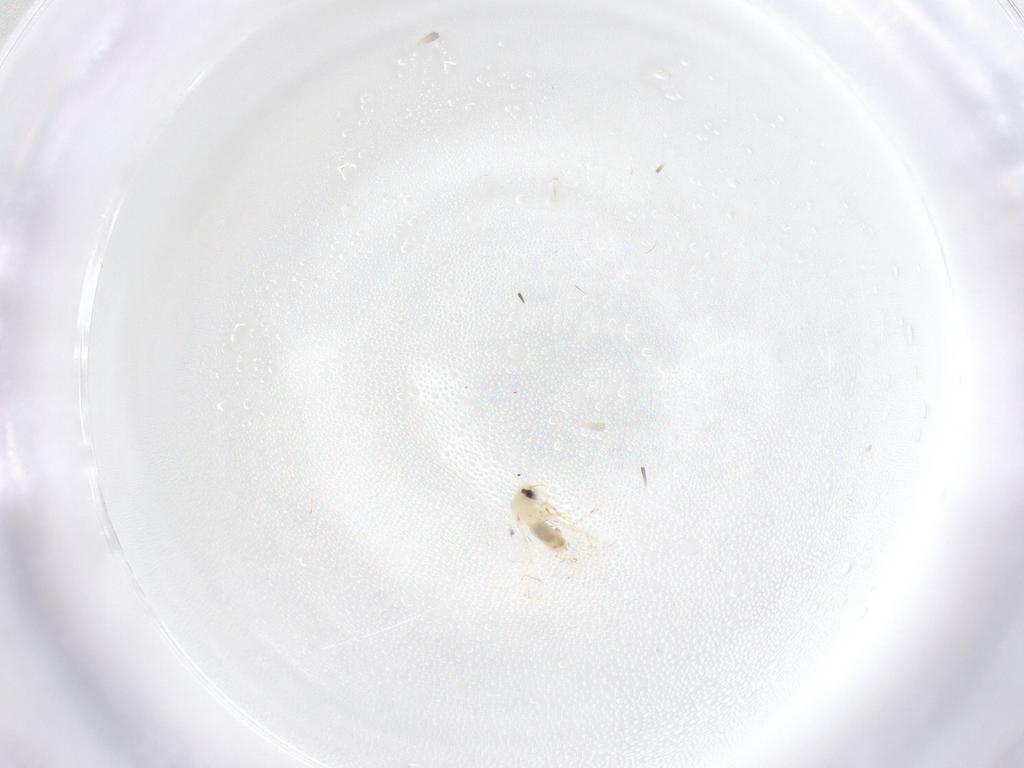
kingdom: Animalia
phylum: Arthropoda
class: Insecta
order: Hemiptera
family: Aleyrodidae
